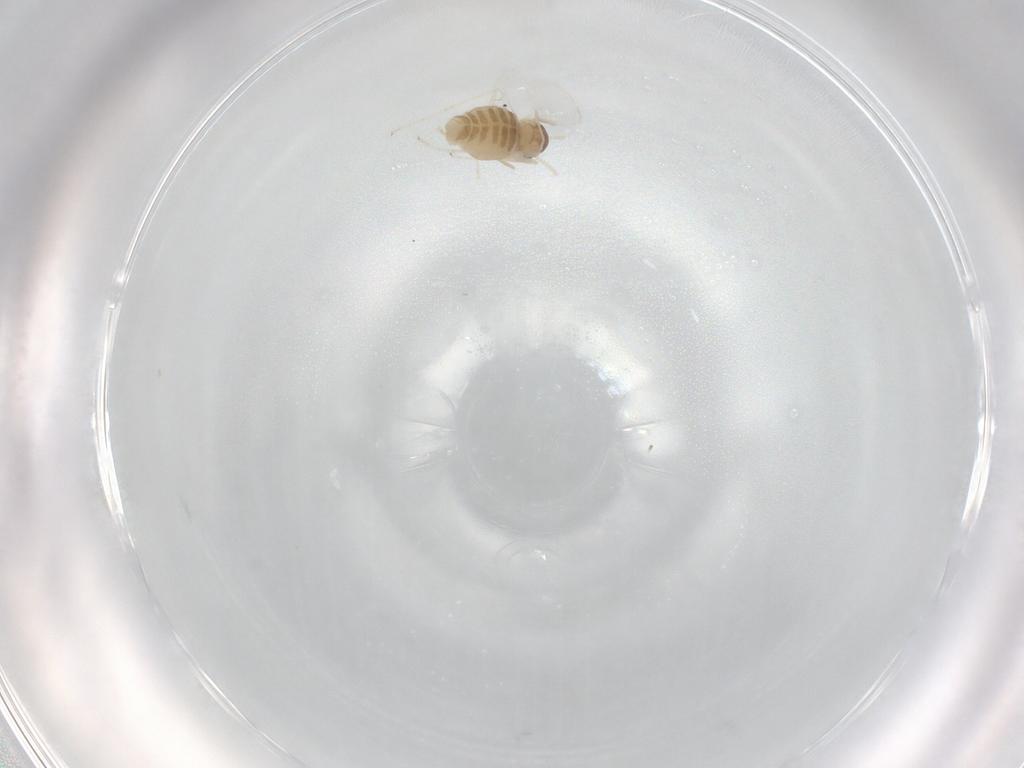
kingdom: Animalia
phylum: Arthropoda
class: Insecta
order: Diptera
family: Cecidomyiidae
